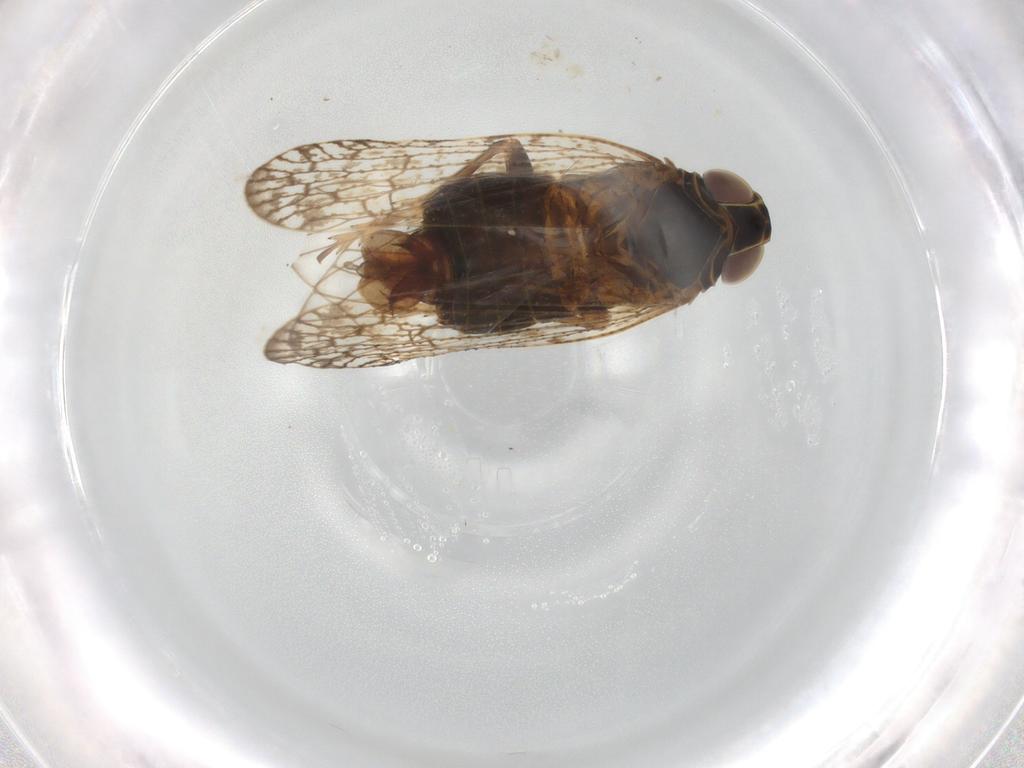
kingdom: Animalia
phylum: Arthropoda
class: Insecta
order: Hemiptera
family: Cixiidae
